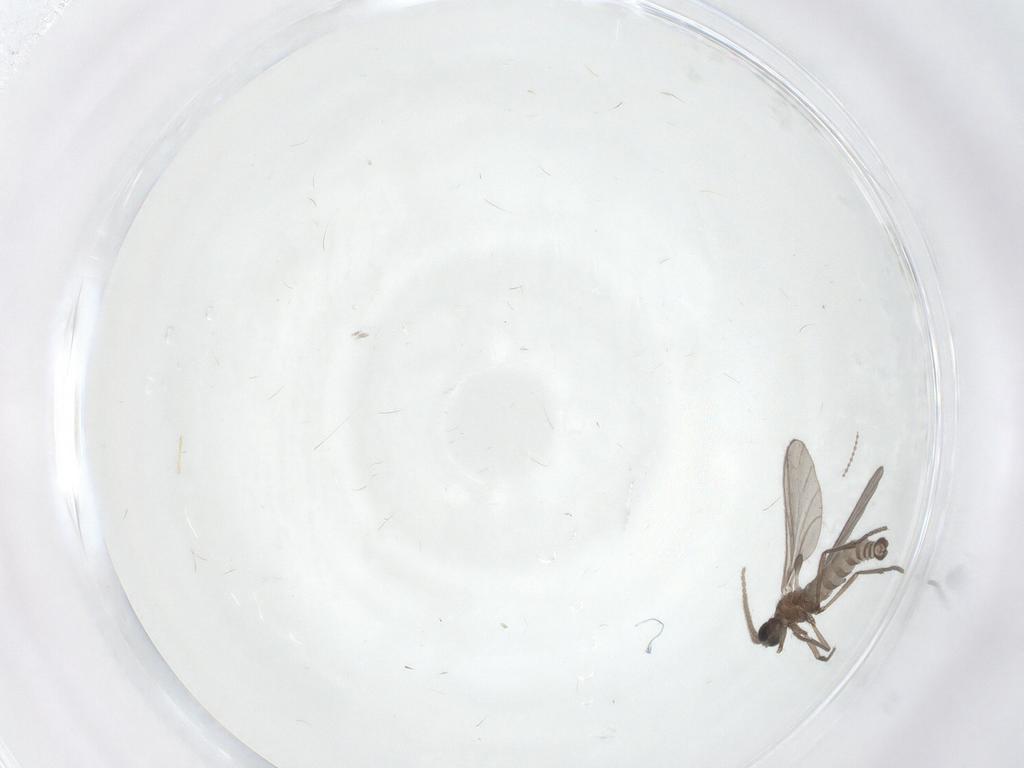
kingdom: Animalia
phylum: Arthropoda
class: Insecta
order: Diptera
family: Sciaridae
